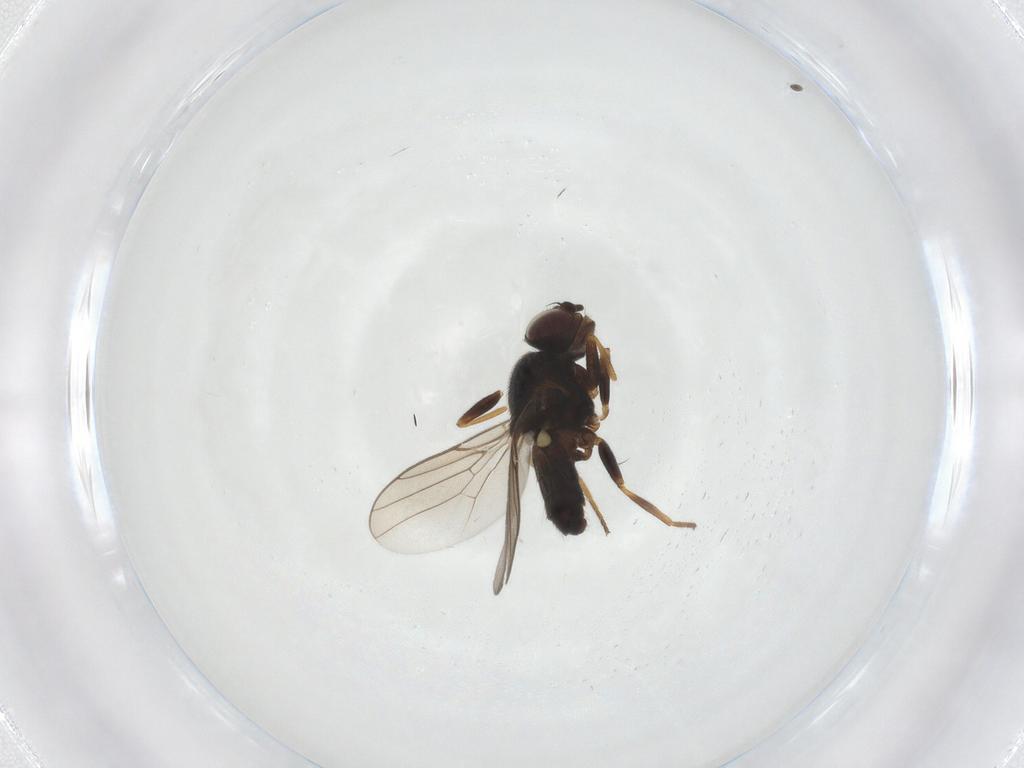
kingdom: Animalia
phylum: Arthropoda
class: Insecta
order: Diptera
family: Chloropidae
